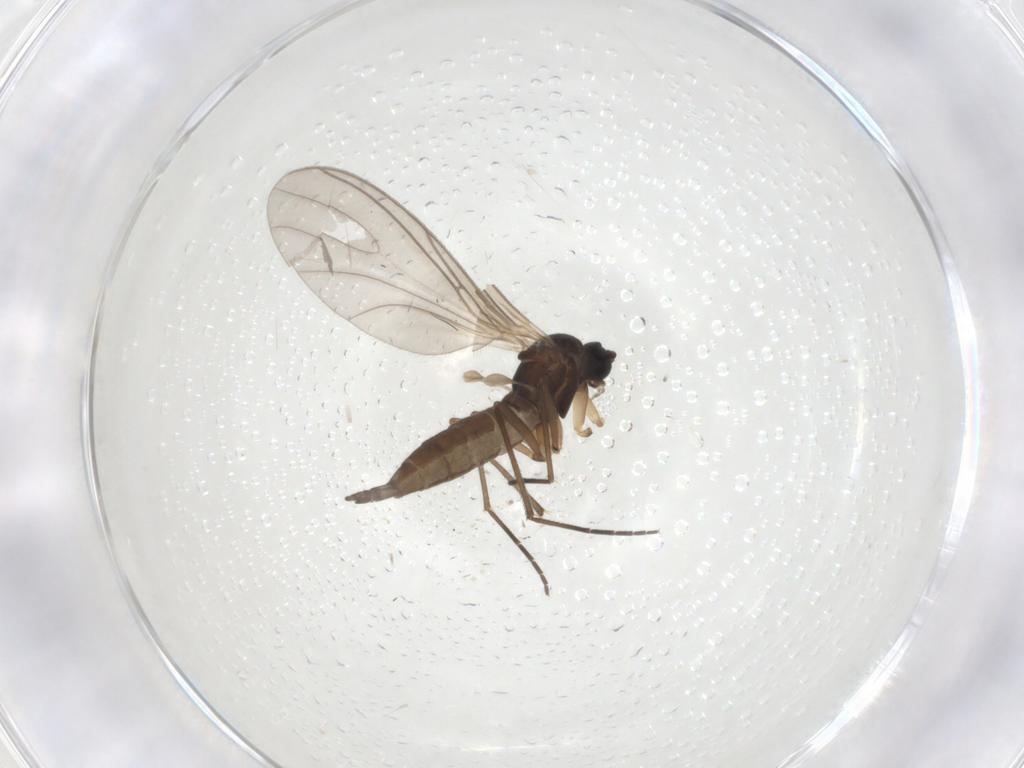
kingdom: Animalia
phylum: Arthropoda
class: Insecta
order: Diptera
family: Sciaridae
